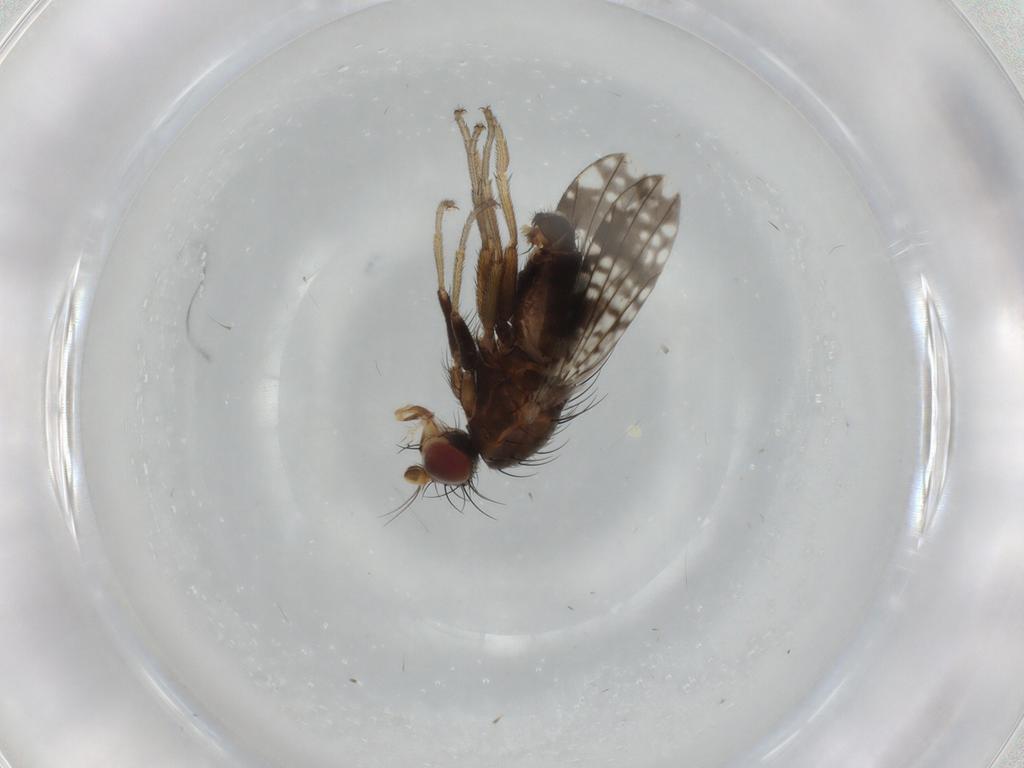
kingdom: Animalia
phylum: Arthropoda
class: Insecta
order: Diptera
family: Tephritidae
